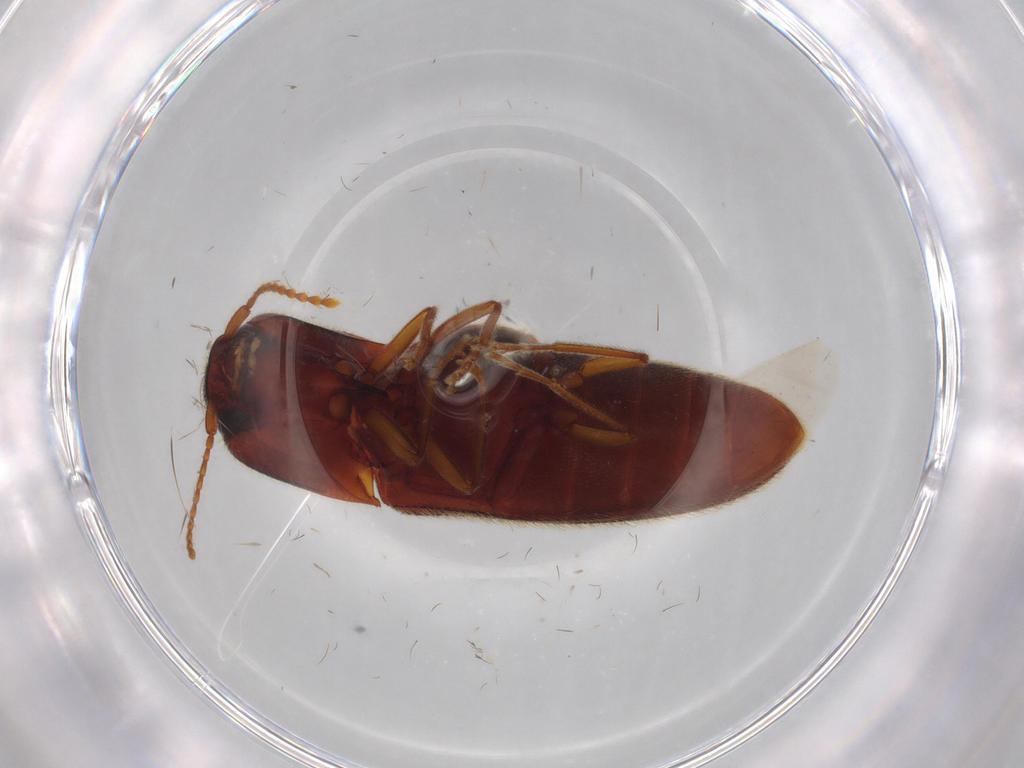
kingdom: Animalia
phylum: Arthropoda
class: Insecta
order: Coleoptera
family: Elateridae
